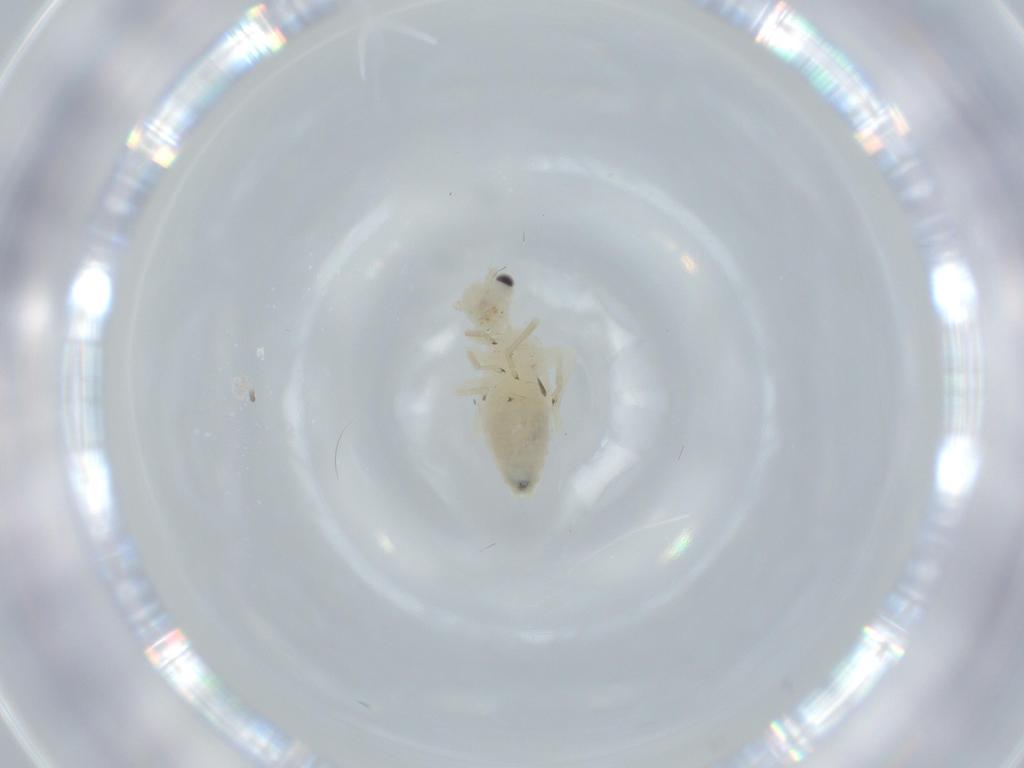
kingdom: Animalia
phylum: Arthropoda
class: Insecta
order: Psocodea
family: Caeciliusidae
